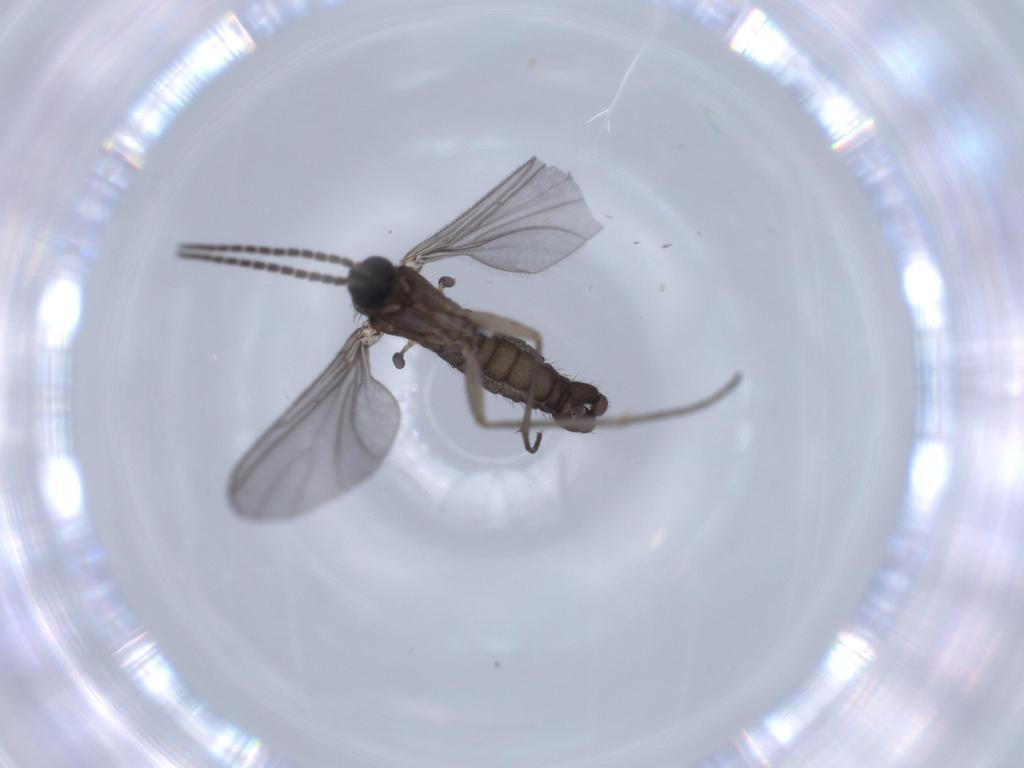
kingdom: Animalia
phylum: Arthropoda
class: Insecta
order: Diptera
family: Sciaridae
